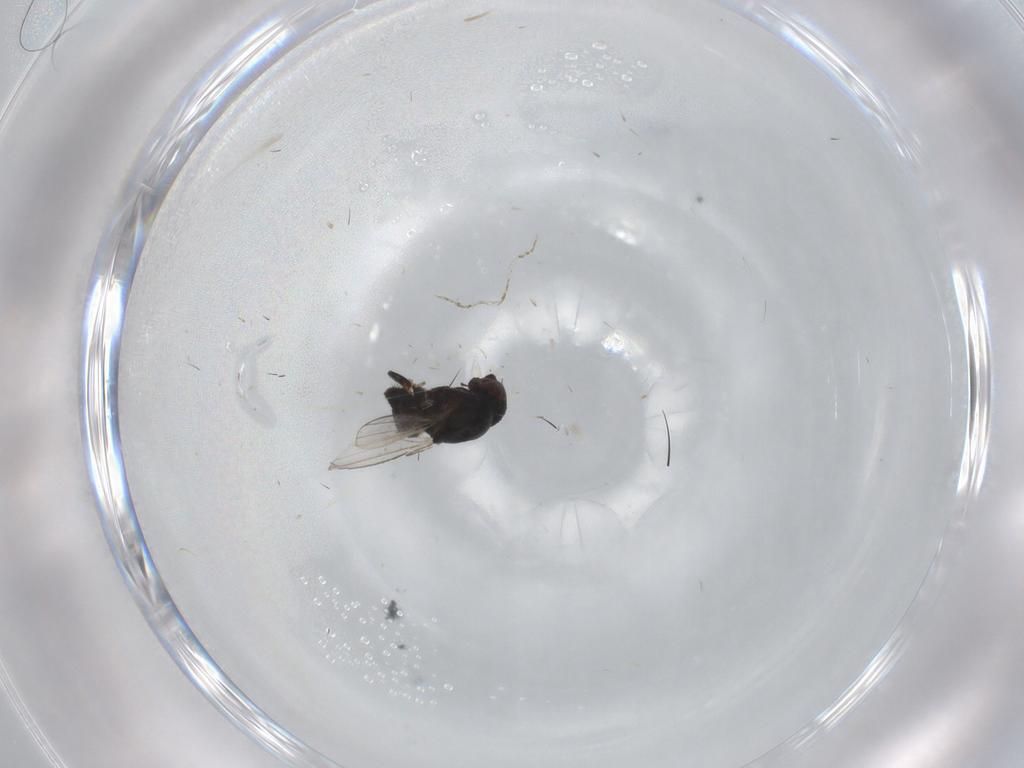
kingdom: Animalia
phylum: Arthropoda
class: Insecta
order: Diptera
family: Milichiidae
